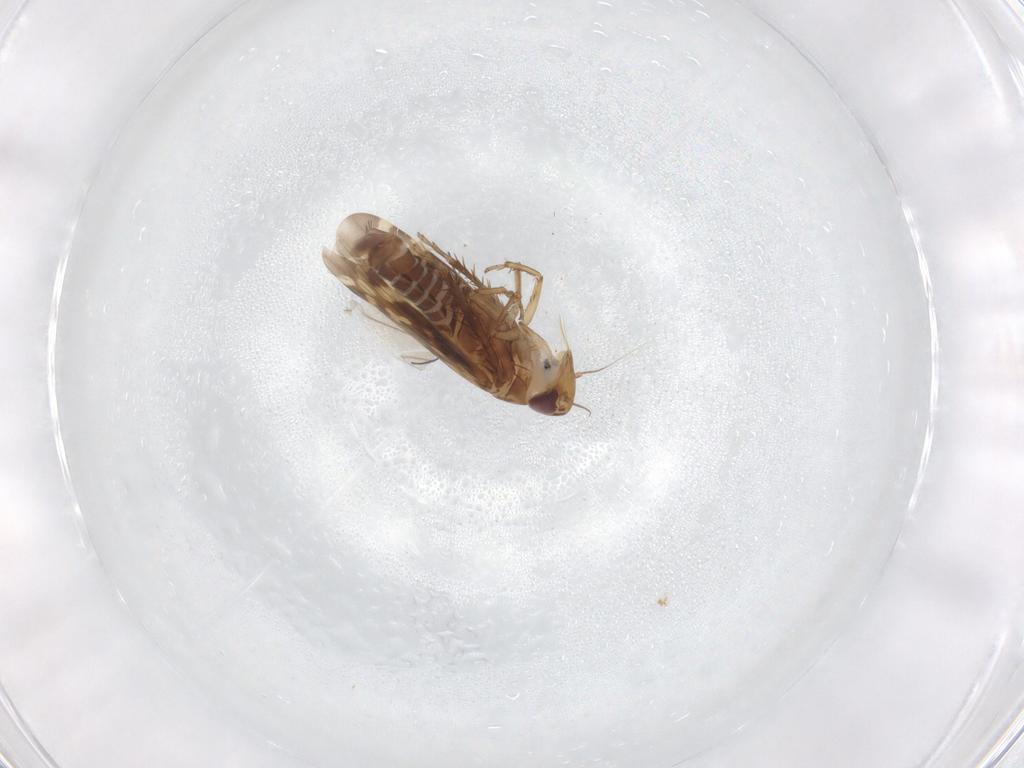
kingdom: Animalia
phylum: Arthropoda
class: Insecta
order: Hemiptera
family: Cicadellidae
